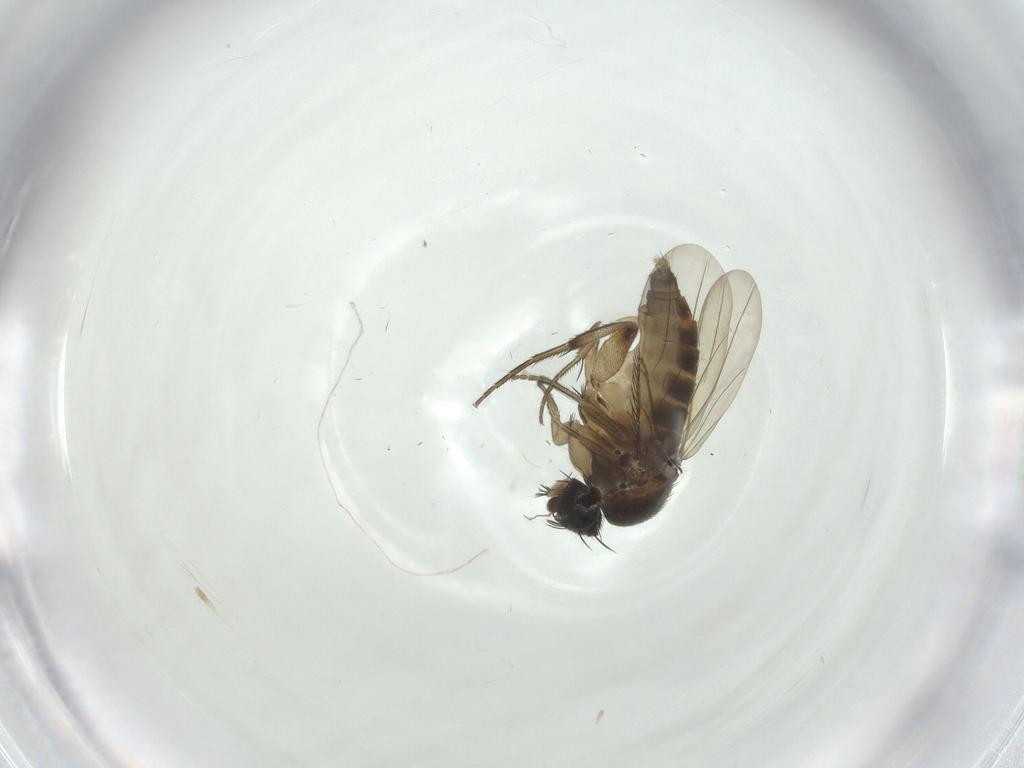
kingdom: Animalia
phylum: Arthropoda
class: Insecta
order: Diptera
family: Phoridae
